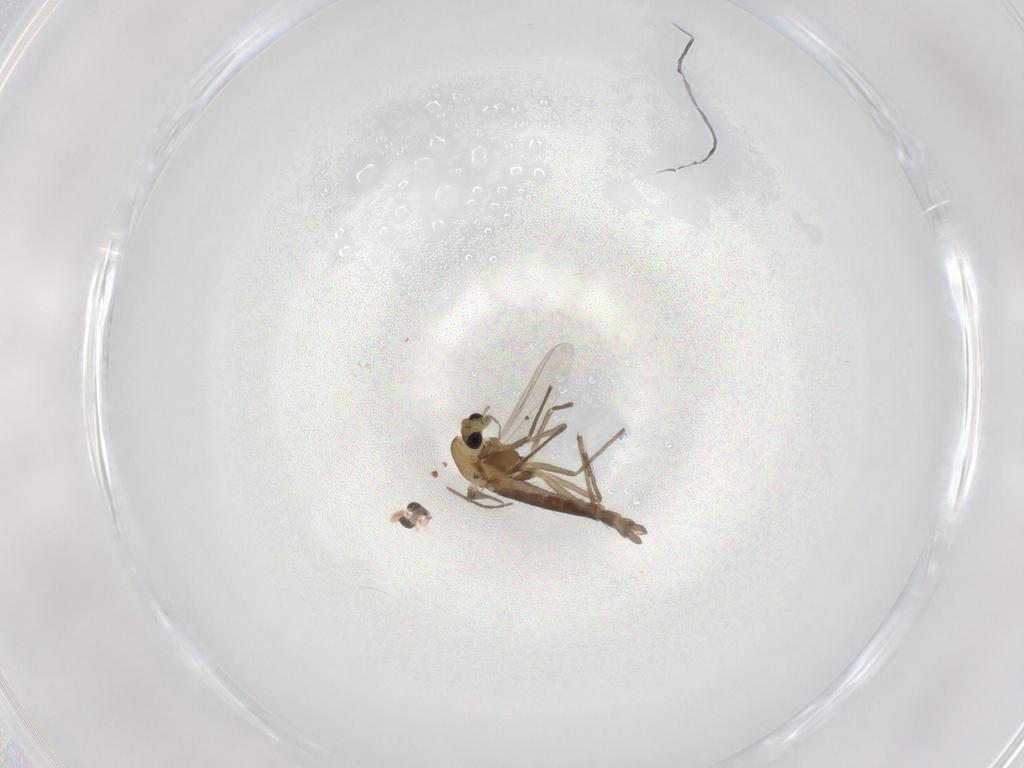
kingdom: Animalia
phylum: Arthropoda
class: Insecta
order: Diptera
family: Chironomidae
